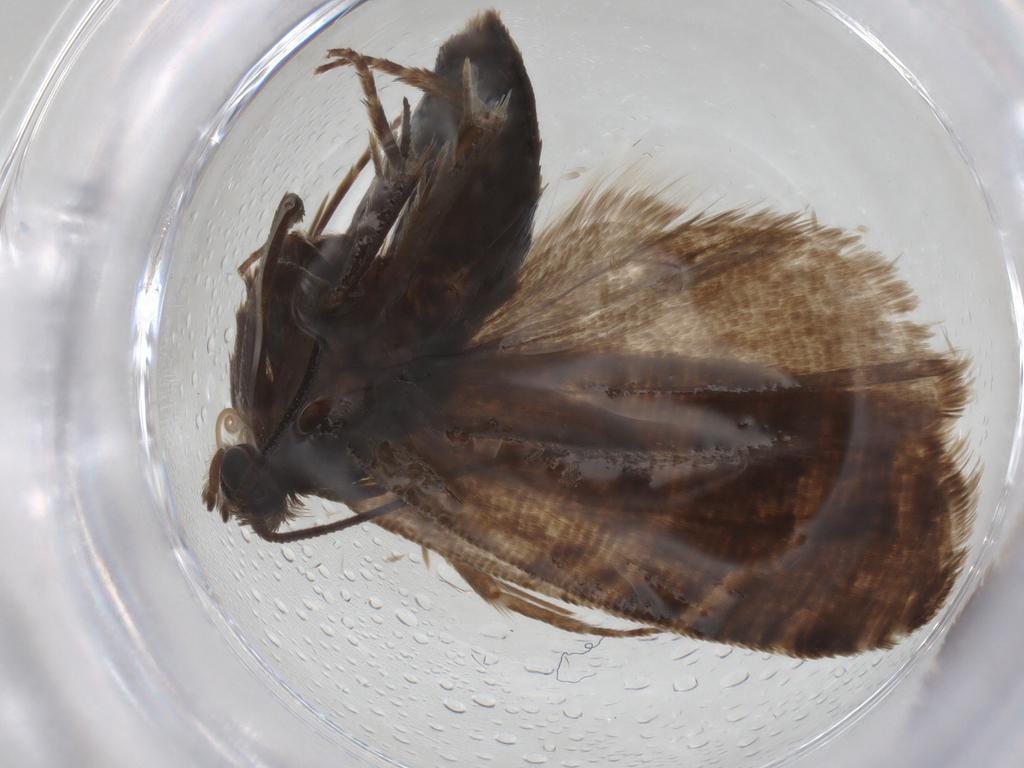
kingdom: Animalia
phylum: Arthropoda
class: Insecta
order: Lepidoptera
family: Tortricidae
